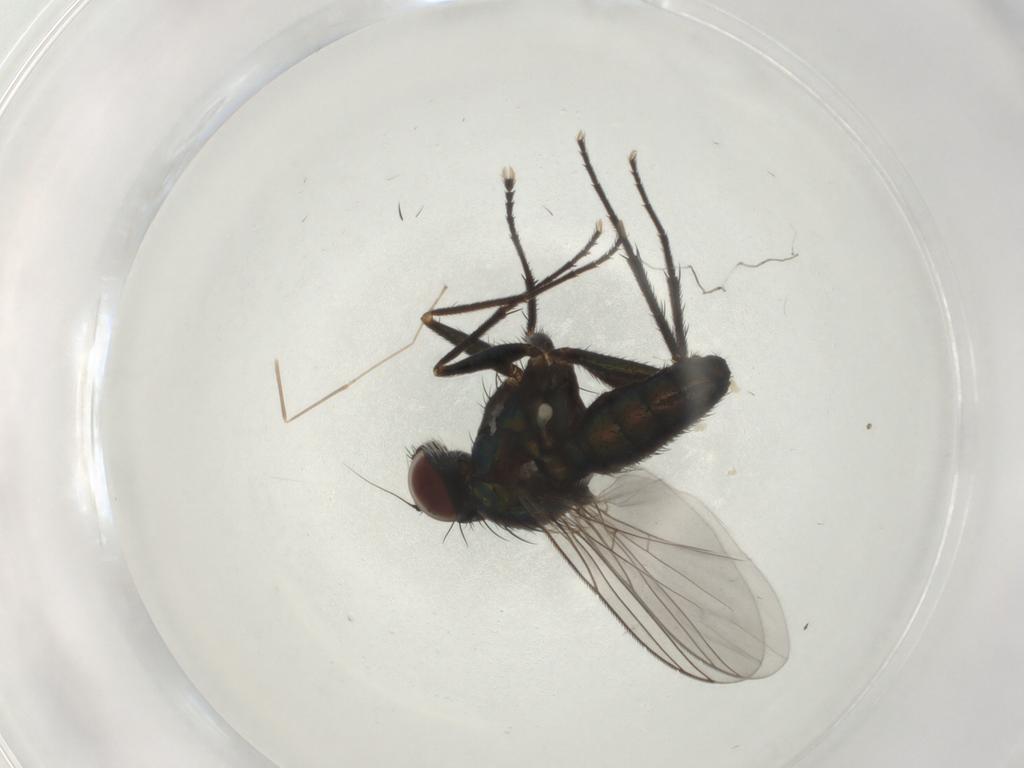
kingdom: Animalia
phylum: Arthropoda
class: Insecta
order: Diptera
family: Dolichopodidae
